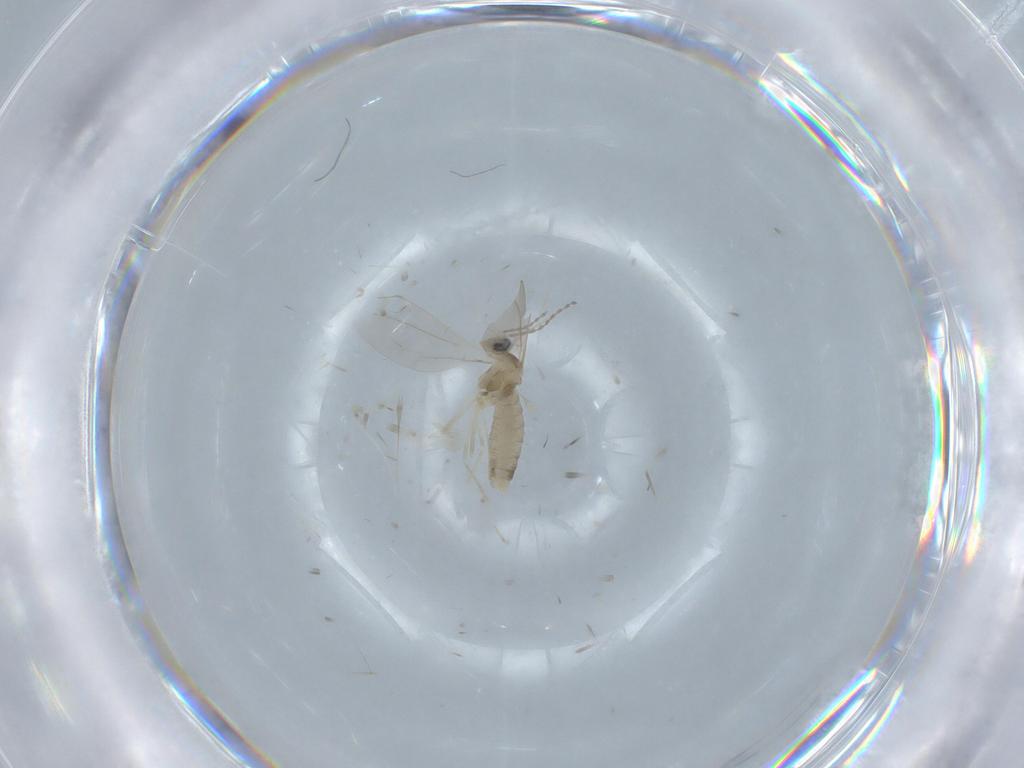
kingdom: Animalia
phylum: Arthropoda
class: Insecta
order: Diptera
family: Cecidomyiidae
